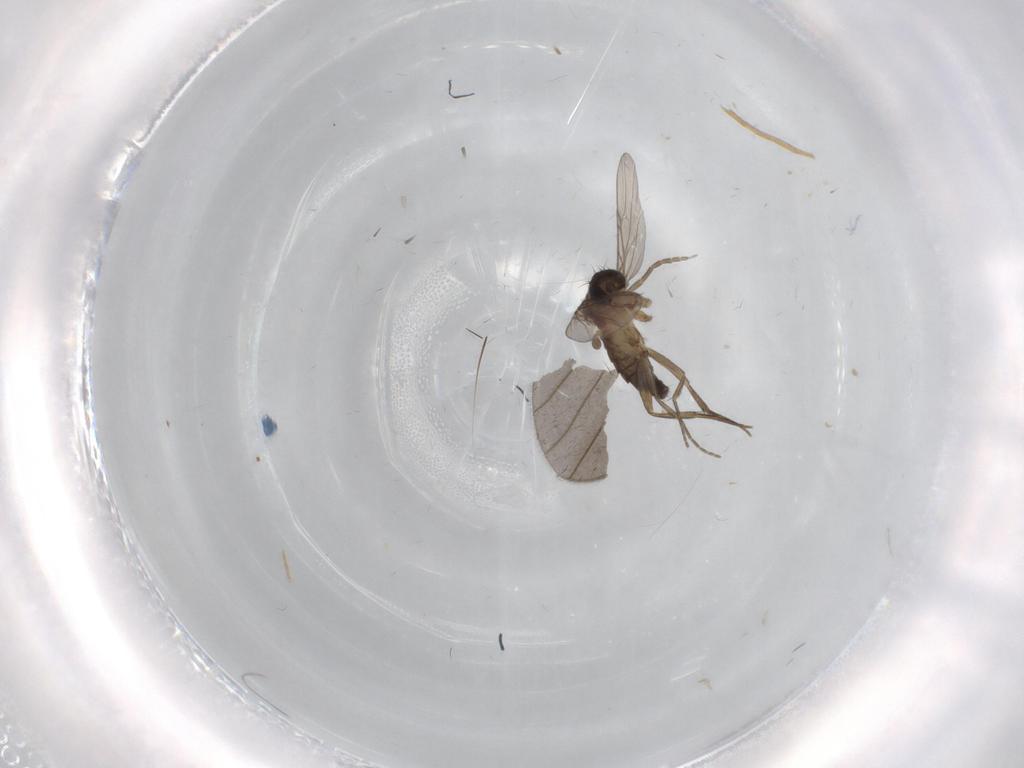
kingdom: Animalia
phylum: Arthropoda
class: Insecta
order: Diptera
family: Phoridae
